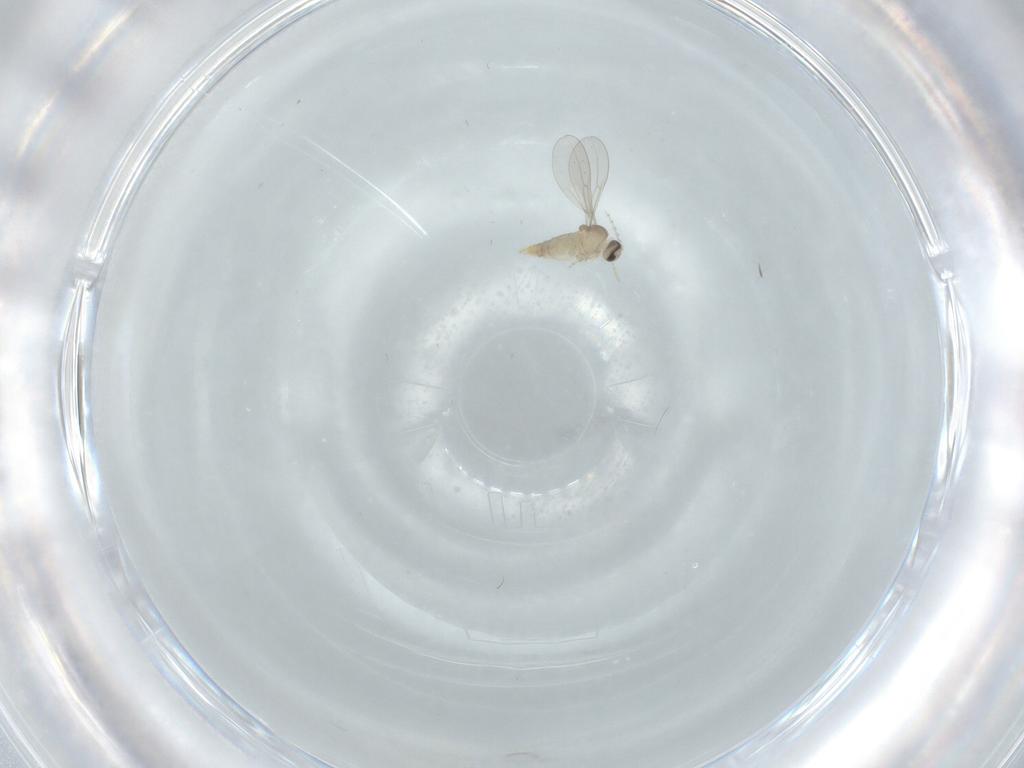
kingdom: Animalia
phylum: Arthropoda
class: Insecta
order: Diptera
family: Cecidomyiidae
